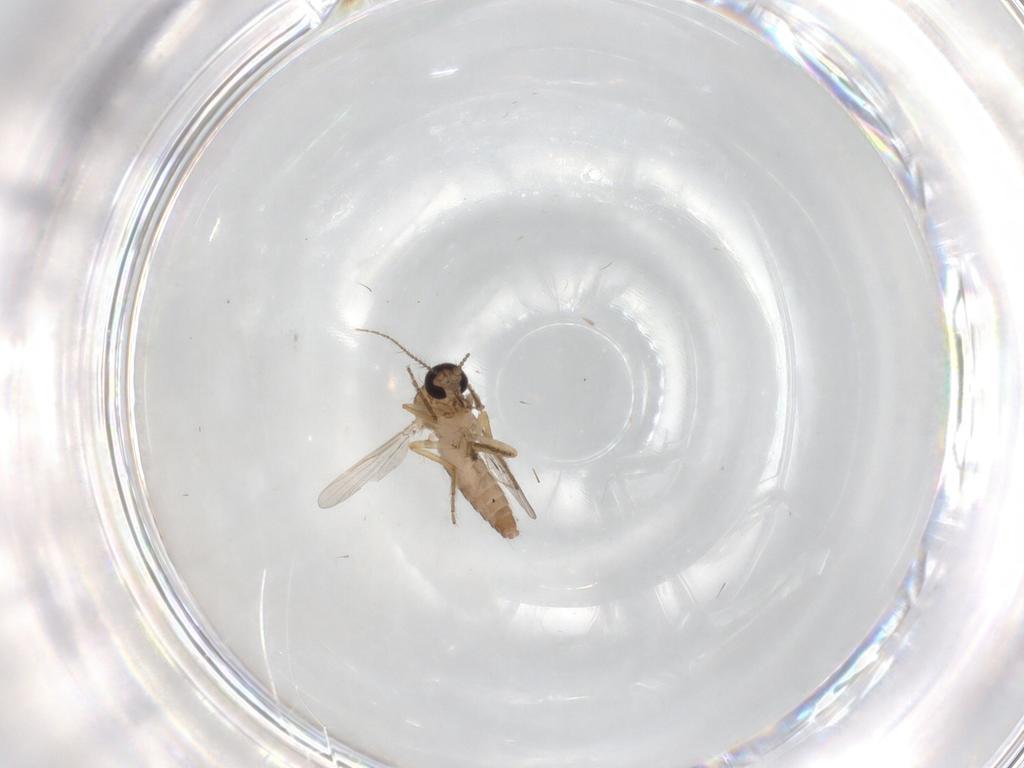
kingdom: Animalia
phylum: Arthropoda
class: Insecta
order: Diptera
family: Ceratopogonidae
